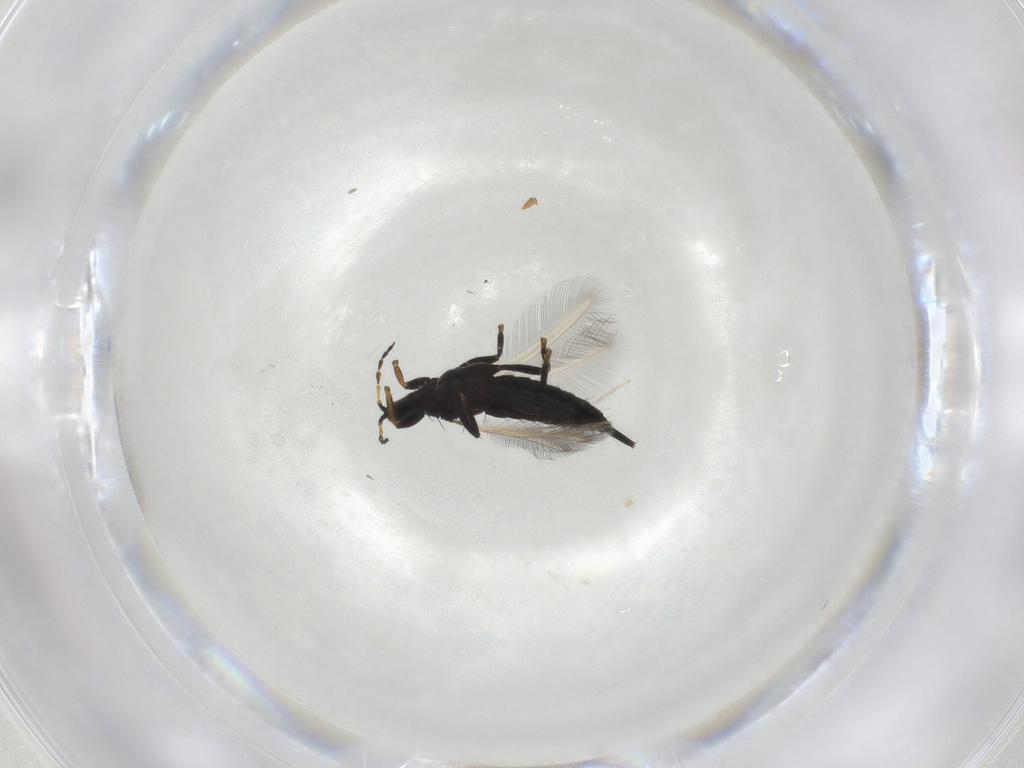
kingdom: Animalia
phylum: Arthropoda
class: Insecta
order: Thysanoptera
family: Phlaeothripidae
